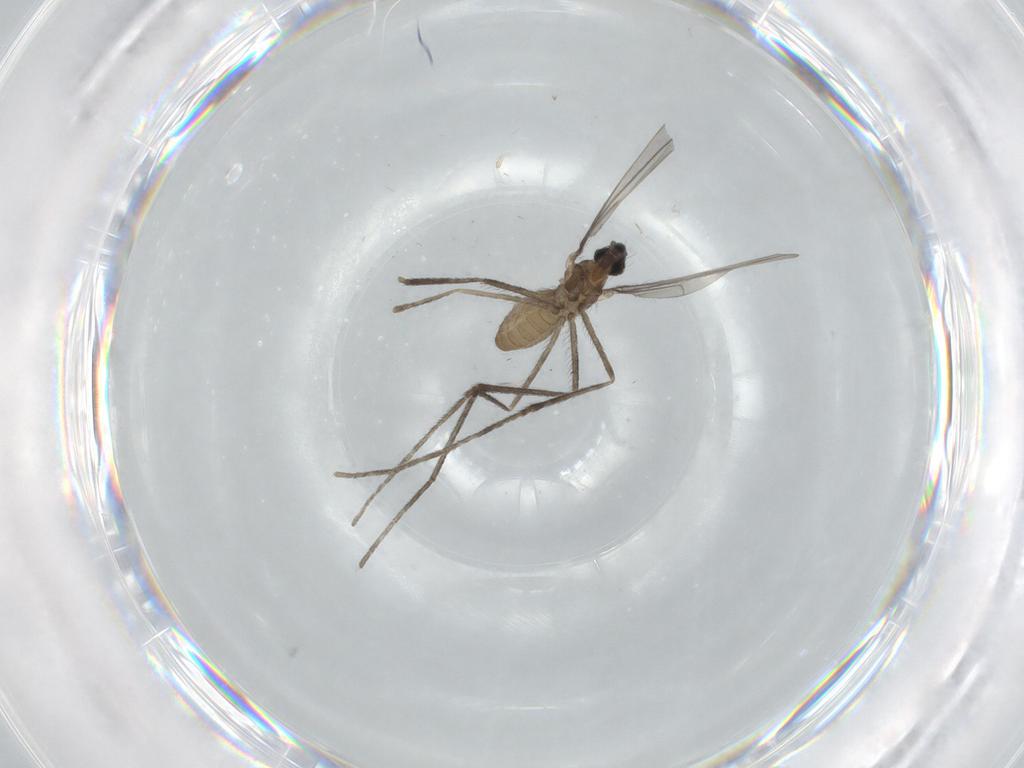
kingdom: Animalia
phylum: Arthropoda
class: Insecta
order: Diptera
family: Cecidomyiidae
